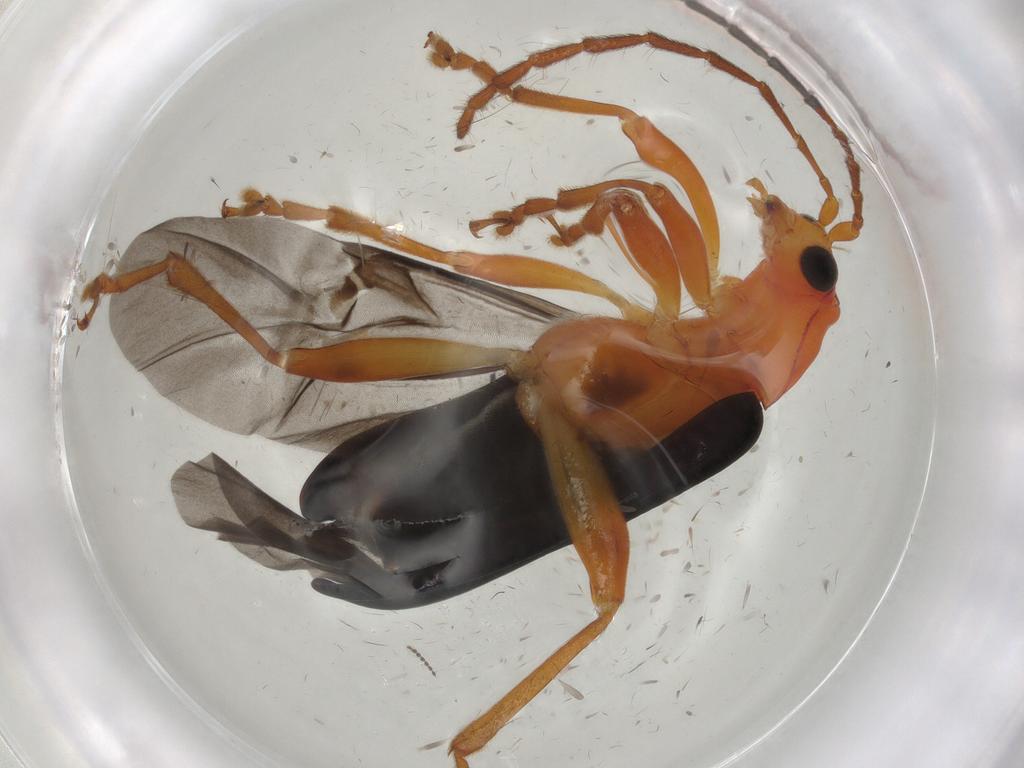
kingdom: Animalia
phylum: Arthropoda
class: Insecta
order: Coleoptera
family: Chrysomelidae
